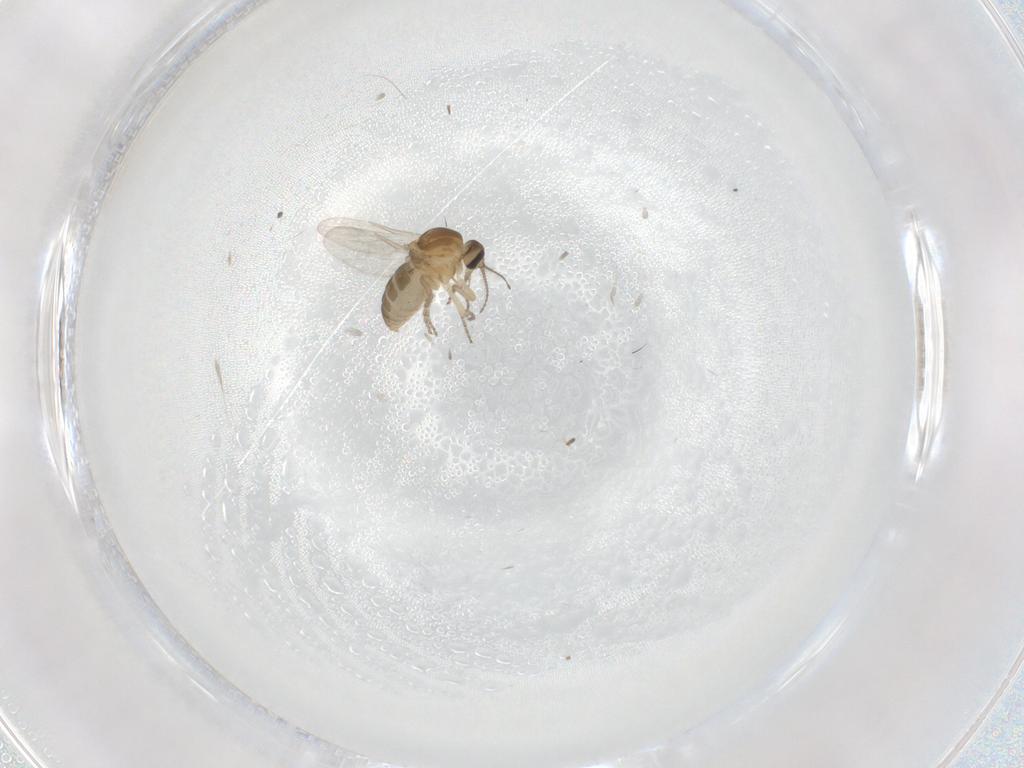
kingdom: Animalia
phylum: Arthropoda
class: Insecta
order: Diptera
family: Ceratopogonidae
